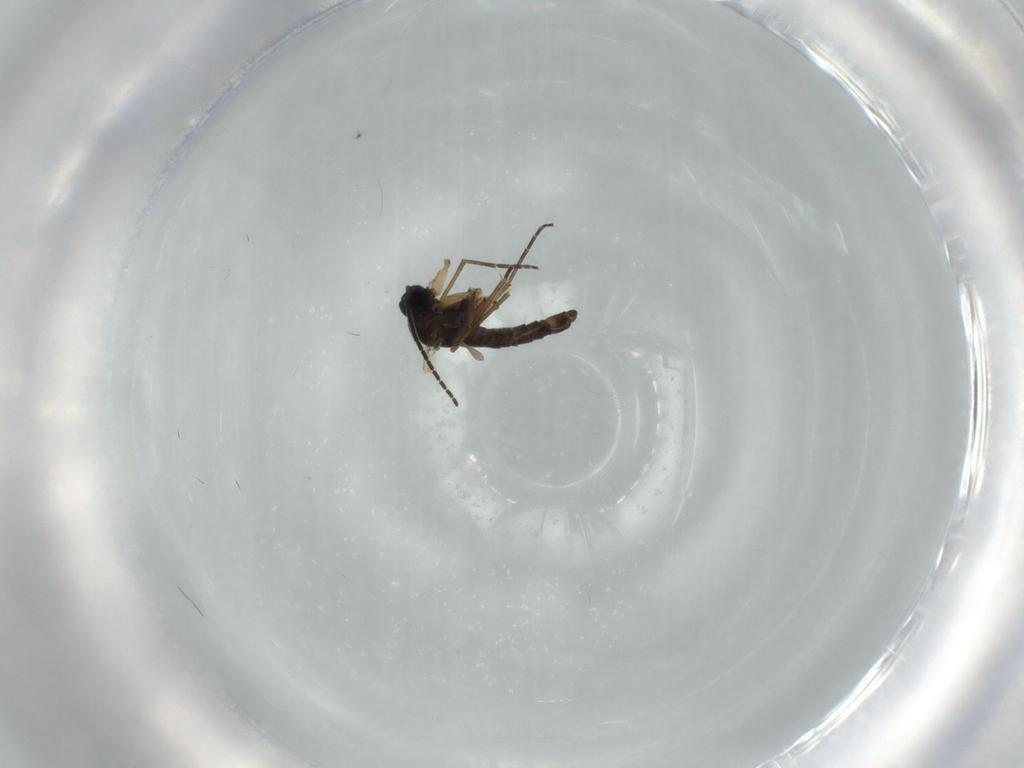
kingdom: Animalia
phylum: Arthropoda
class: Insecta
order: Diptera
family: Sciaridae
